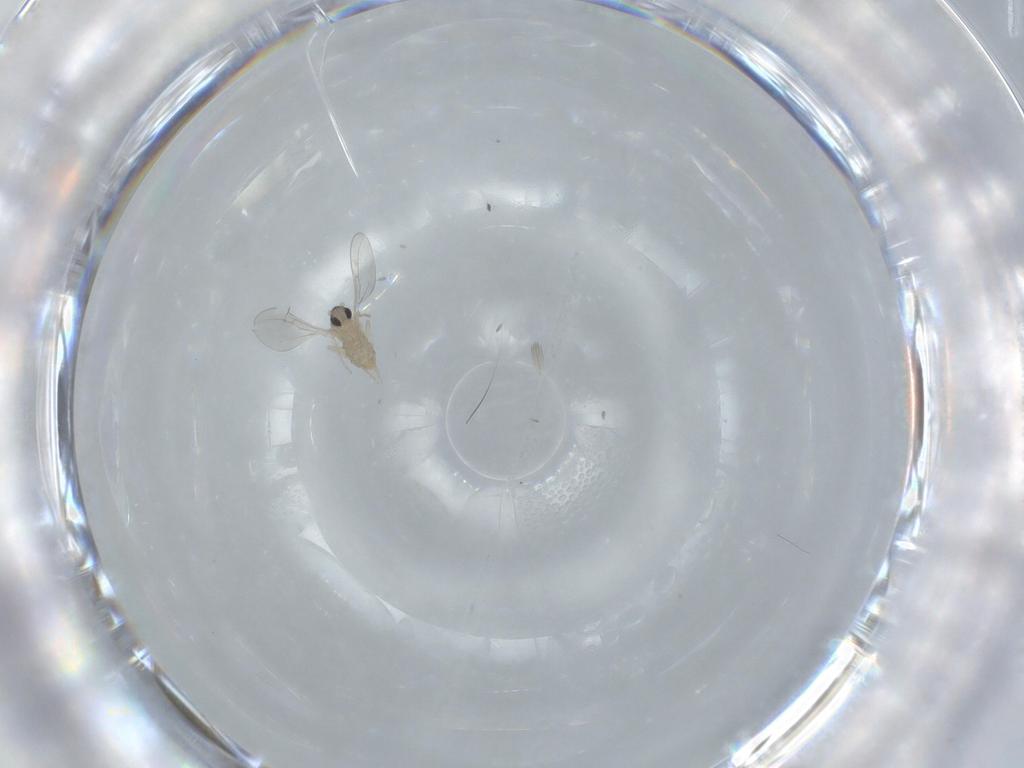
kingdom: Animalia
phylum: Arthropoda
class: Insecta
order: Diptera
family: Cecidomyiidae
